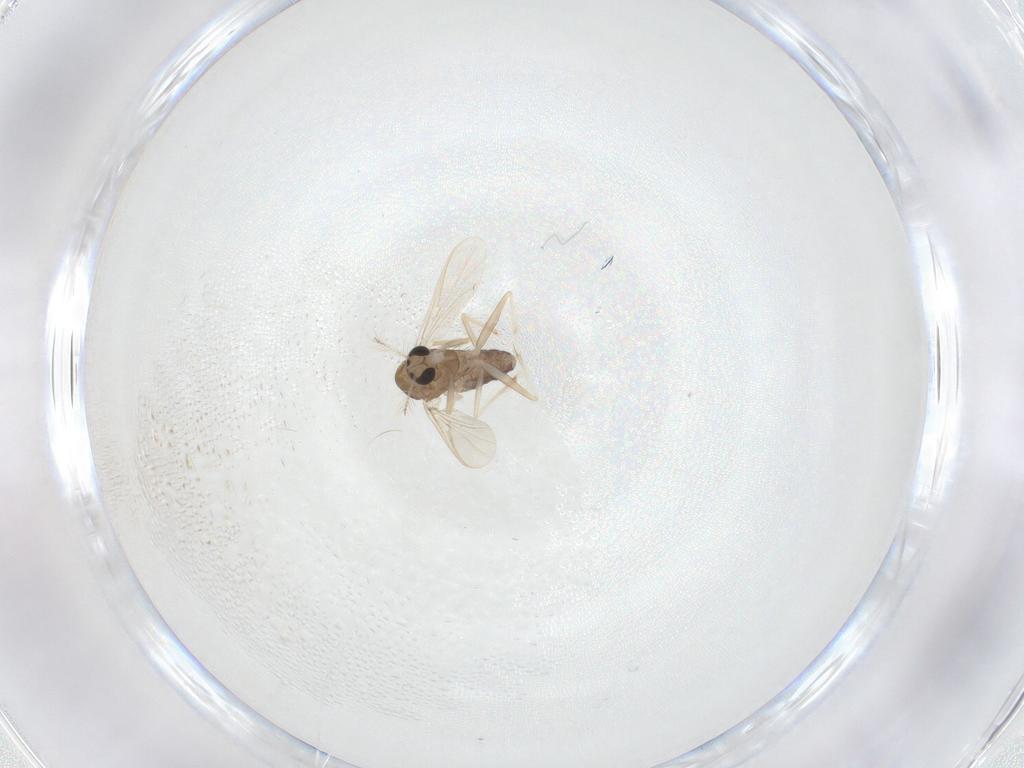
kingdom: Animalia
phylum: Arthropoda
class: Insecta
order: Diptera
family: Chironomidae
